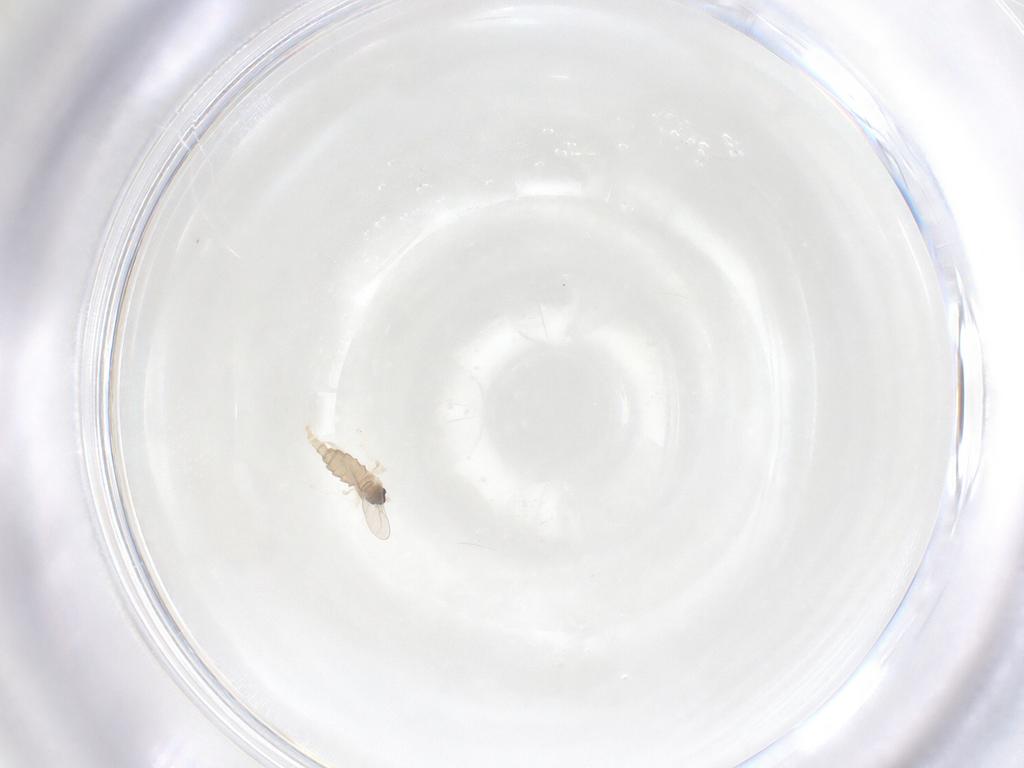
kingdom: Animalia
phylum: Arthropoda
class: Insecta
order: Diptera
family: Cecidomyiidae
